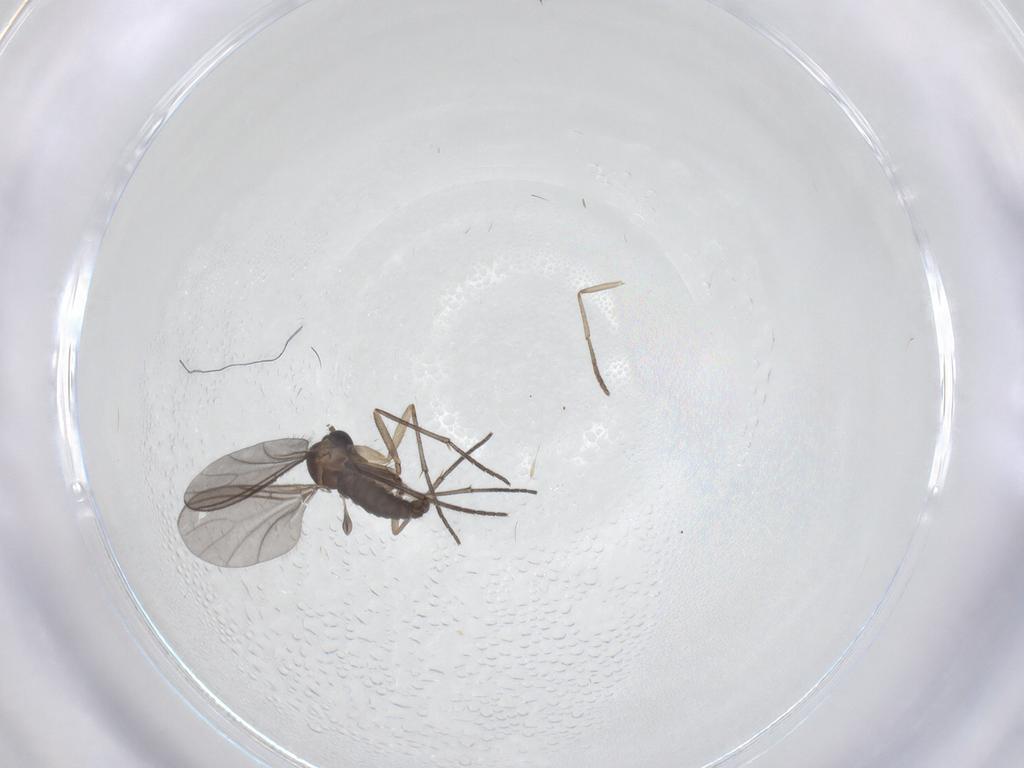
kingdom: Animalia
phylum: Arthropoda
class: Insecta
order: Diptera
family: Sciaridae
